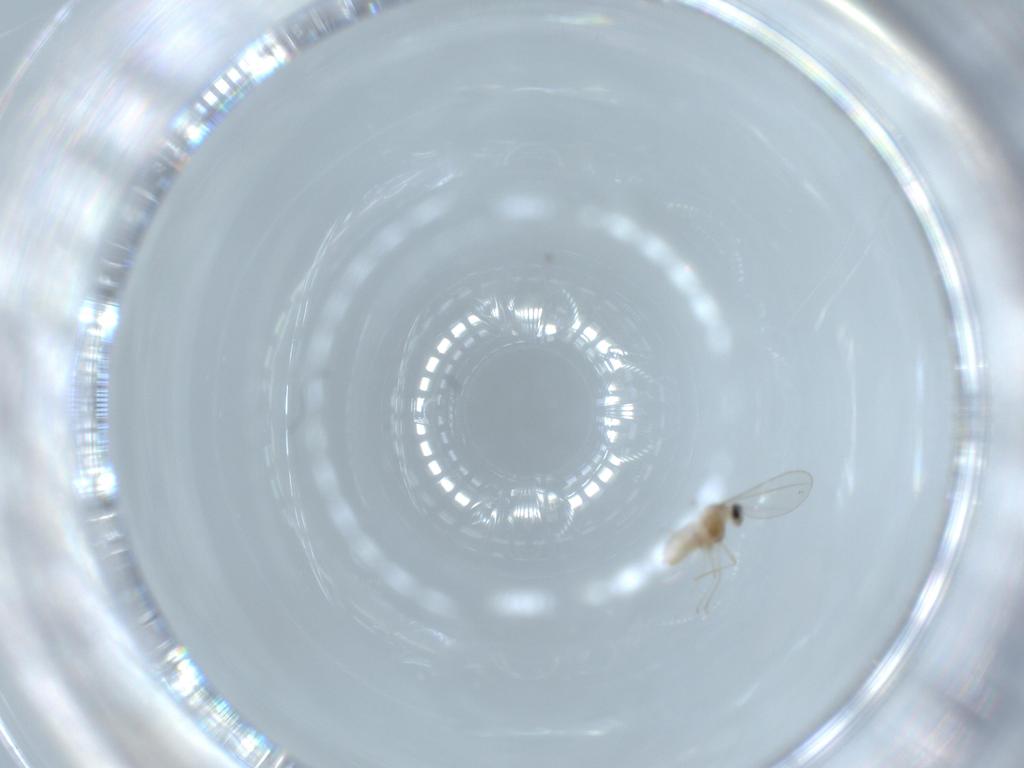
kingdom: Animalia
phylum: Arthropoda
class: Insecta
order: Diptera
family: Cecidomyiidae
